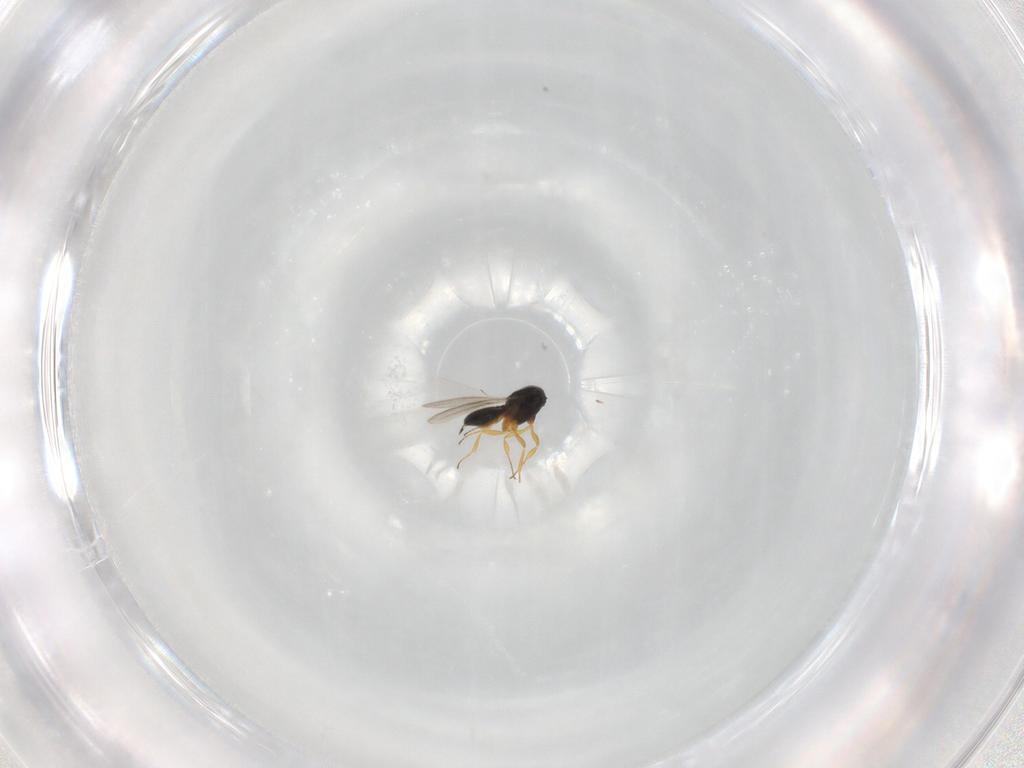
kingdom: Animalia
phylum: Arthropoda
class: Insecta
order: Hymenoptera
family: Scelionidae
